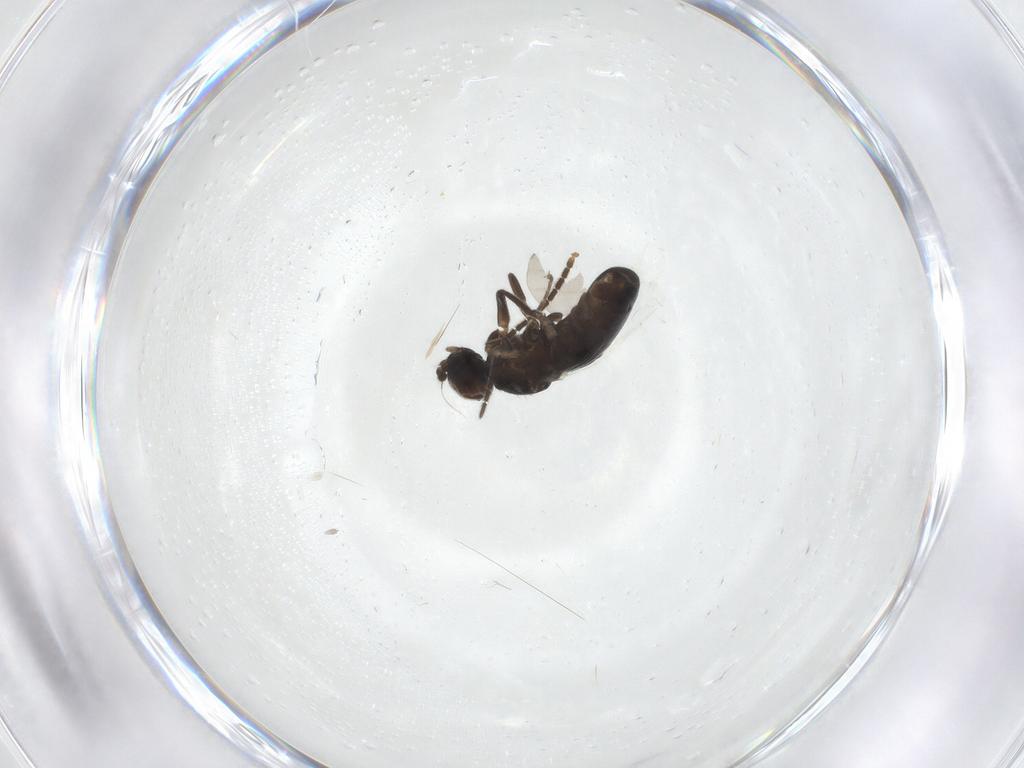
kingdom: Animalia
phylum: Arthropoda
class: Insecta
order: Diptera
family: Sciaridae
